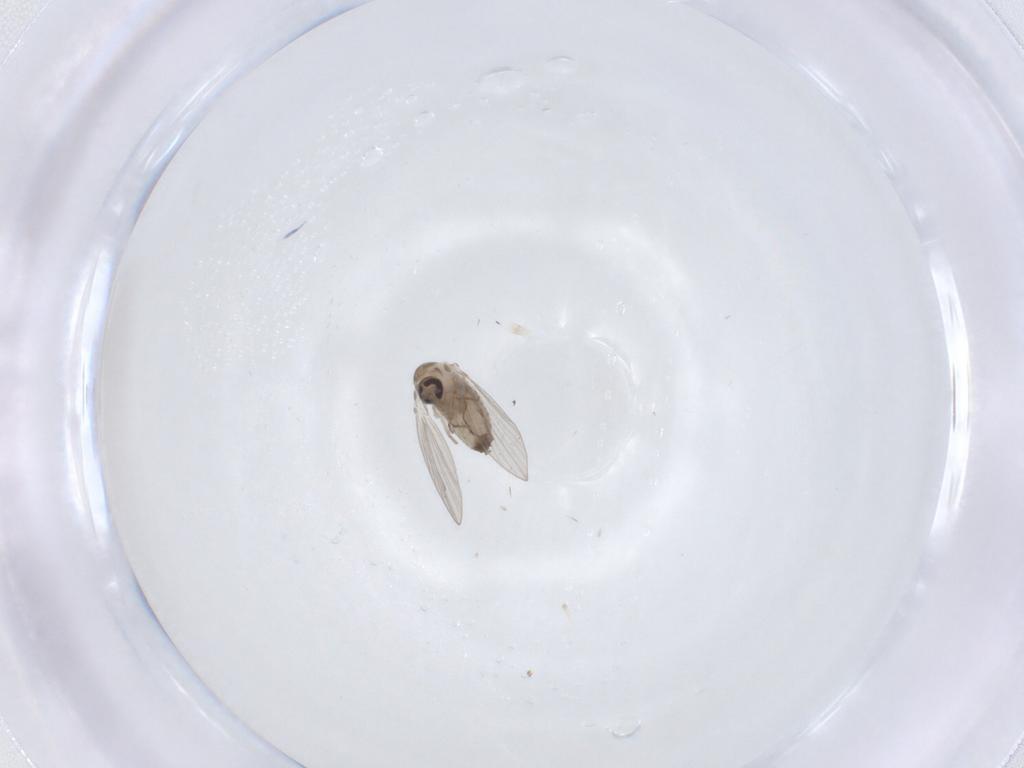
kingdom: Animalia
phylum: Arthropoda
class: Insecta
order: Diptera
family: Psychodidae
